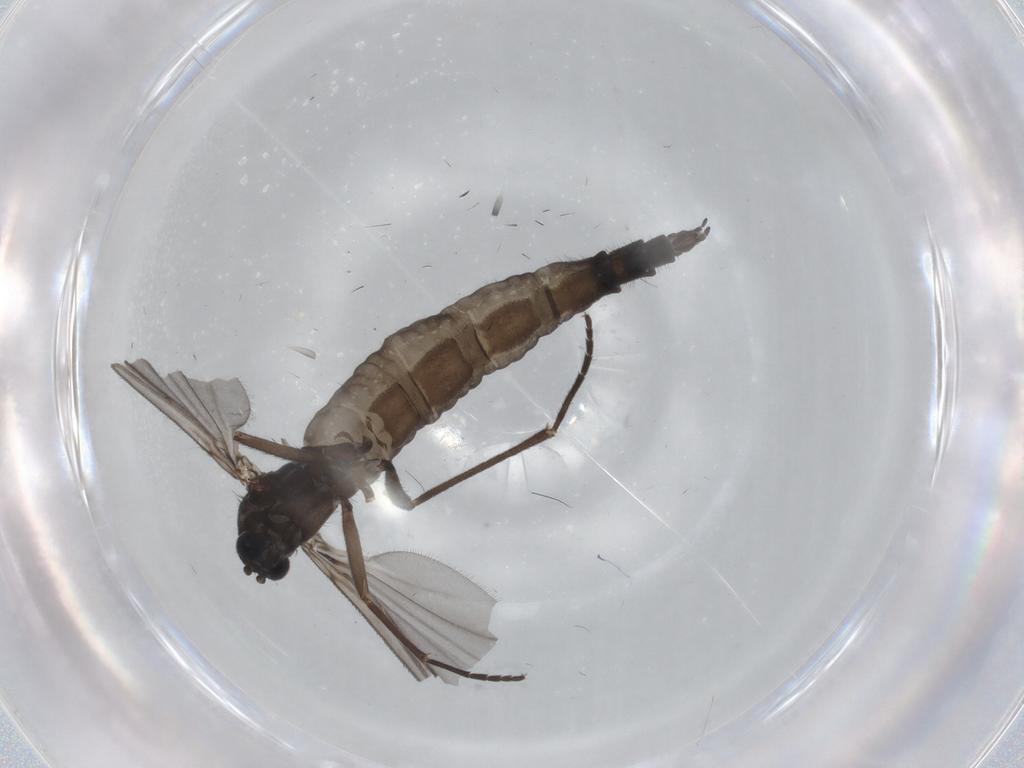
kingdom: Animalia
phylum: Arthropoda
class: Insecta
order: Diptera
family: Sciaridae
